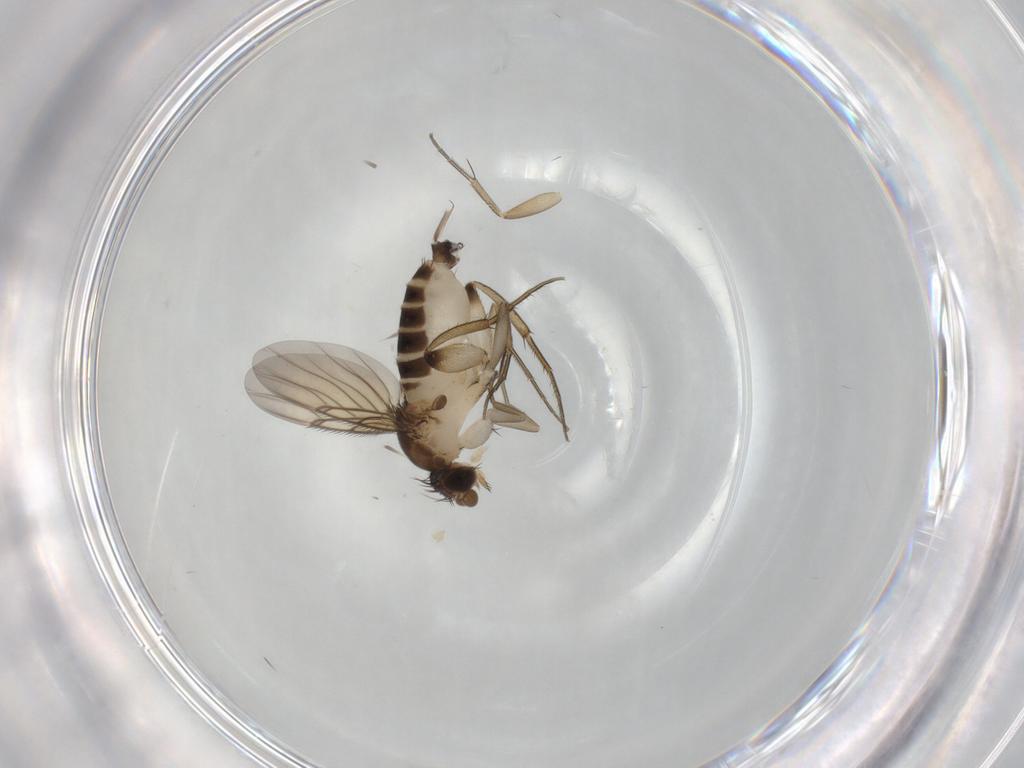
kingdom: Animalia
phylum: Arthropoda
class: Insecta
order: Diptera
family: Phoridae
